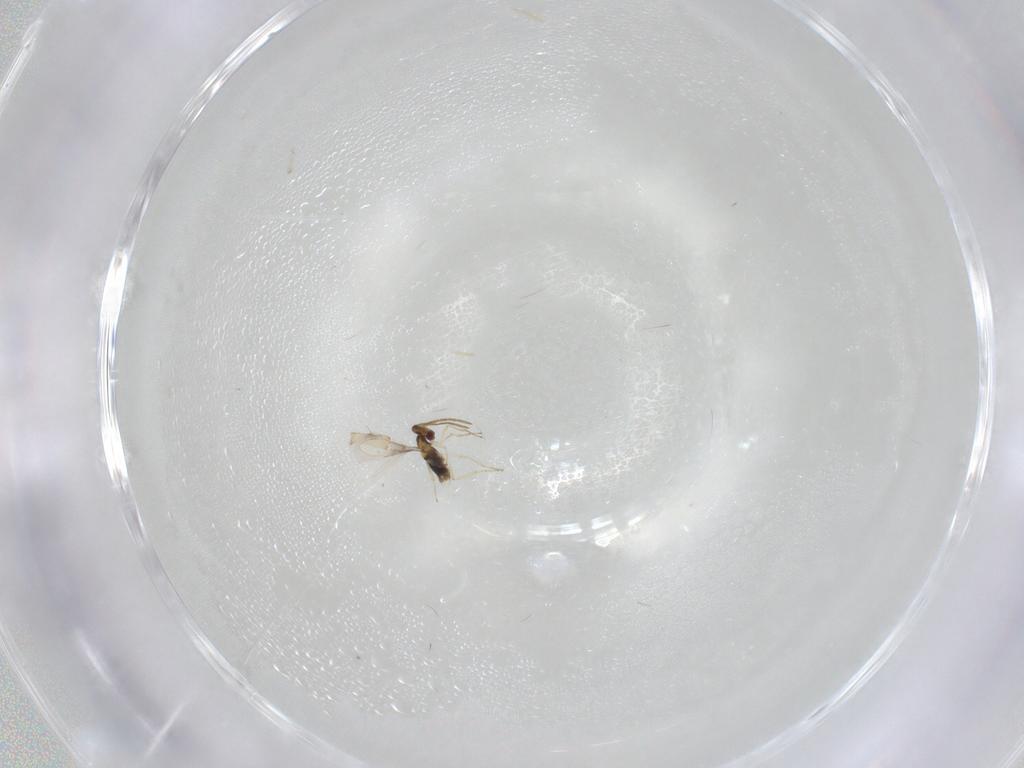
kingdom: Animalia
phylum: Arthropoda
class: Insecta
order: Hymenoptera
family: Aphelinidae
